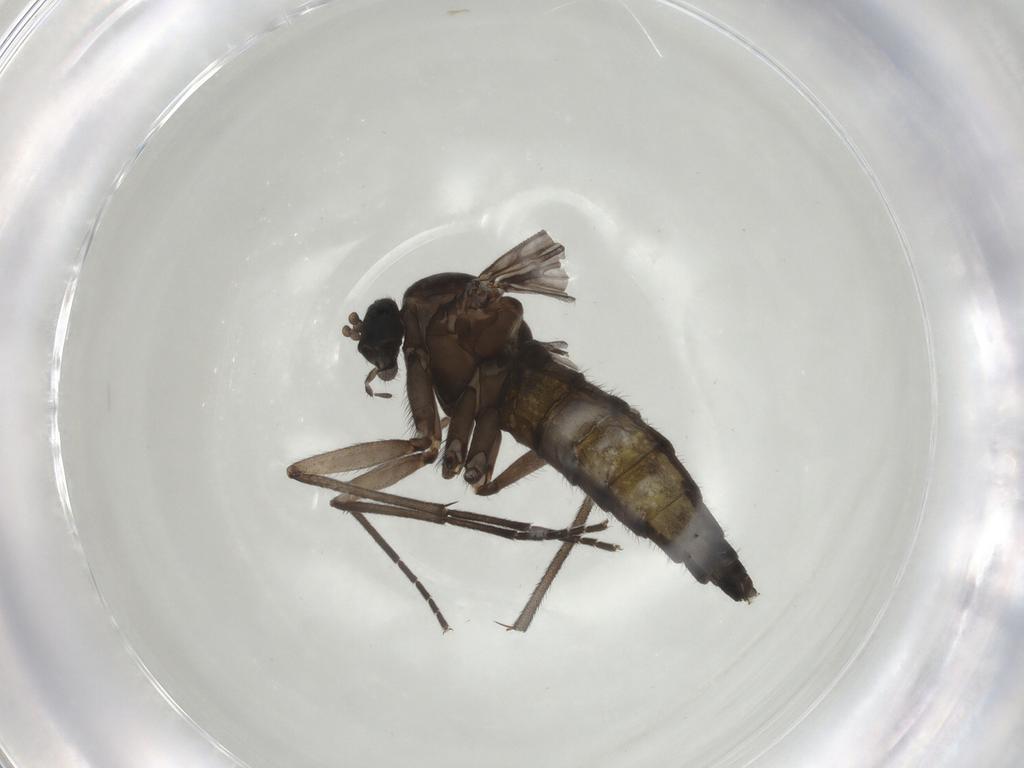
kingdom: Animalia
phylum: Arthropoda
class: Insecta
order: Diptera
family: Sciaridae
